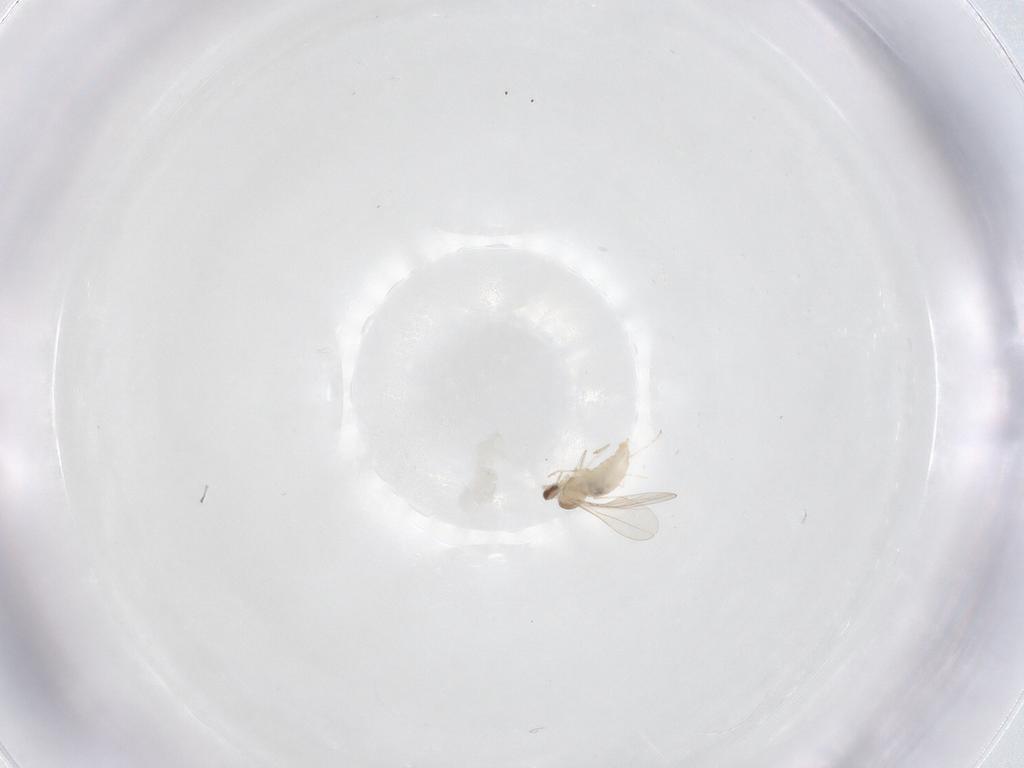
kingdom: Animalia
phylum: Arthropoda
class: Insecta
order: Diptera
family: Cecidomyiidae
